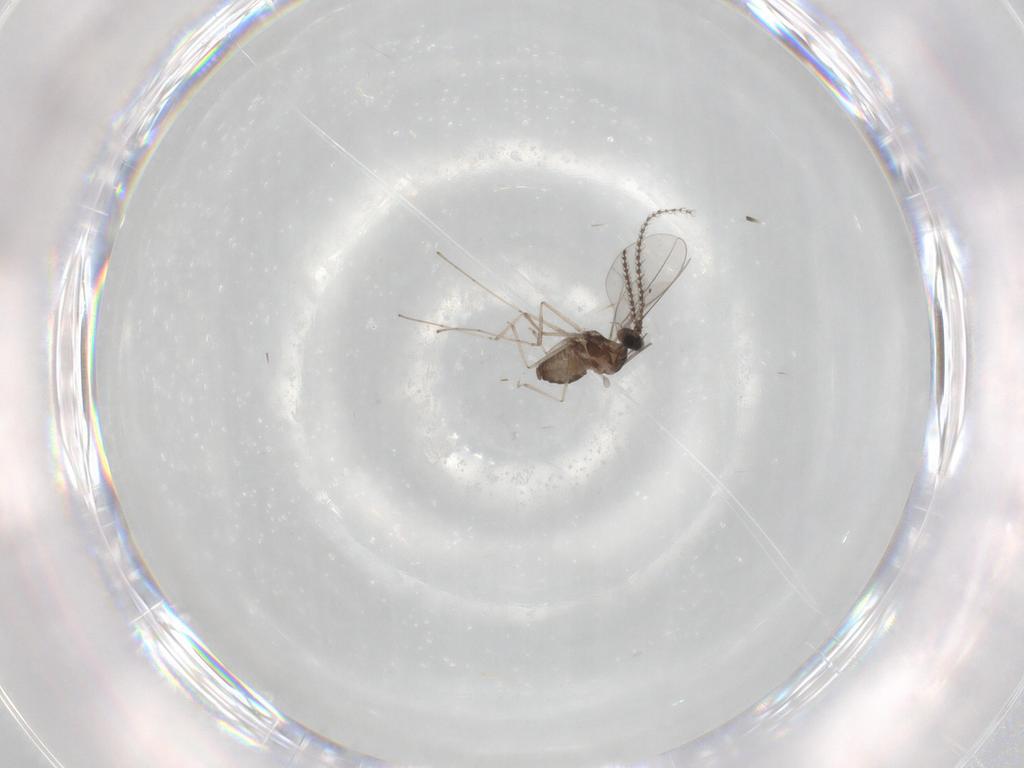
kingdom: Animalia
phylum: Arthropoda
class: Insecta
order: Diptera
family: Cecidomyiidae
